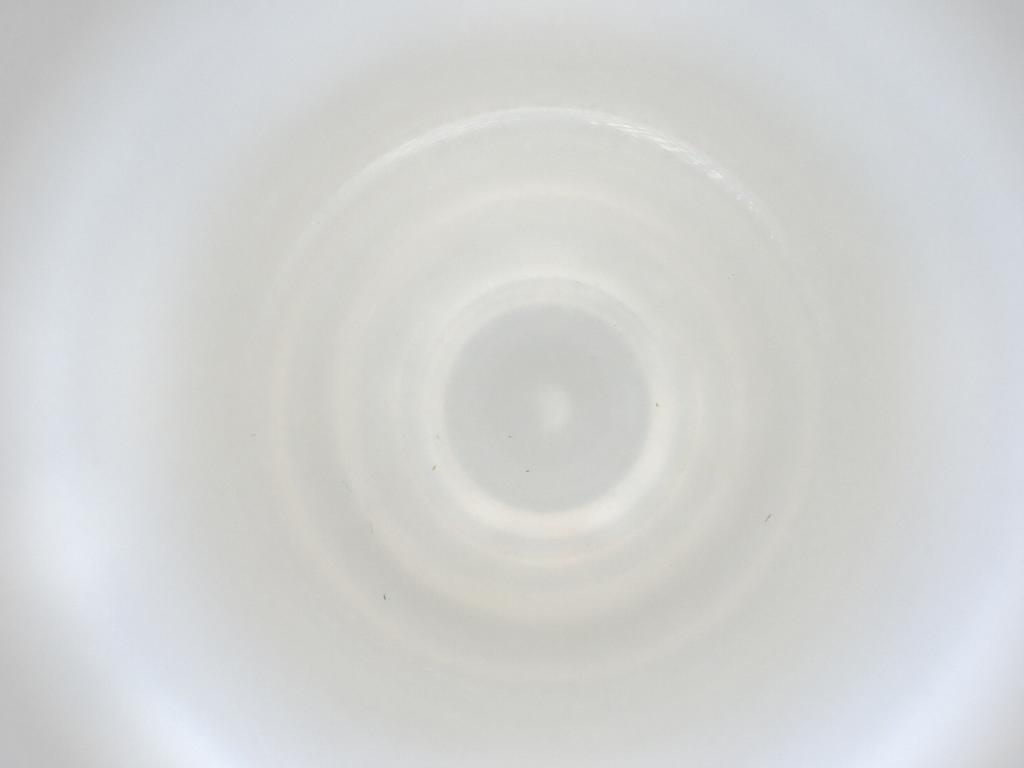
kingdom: Animalia
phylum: Arthropoda
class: Insecta
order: Diptera
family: Cecidomyiidae
